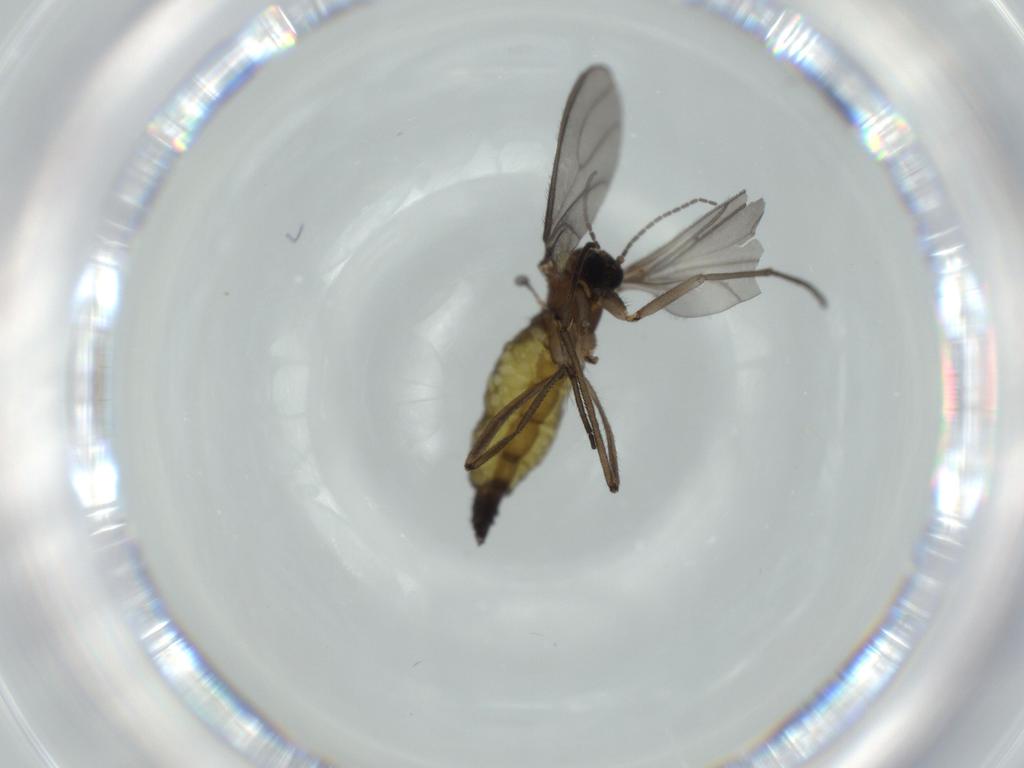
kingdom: Animalia
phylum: Arthropoda
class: Insecta
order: Diptera
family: Sciaridae
